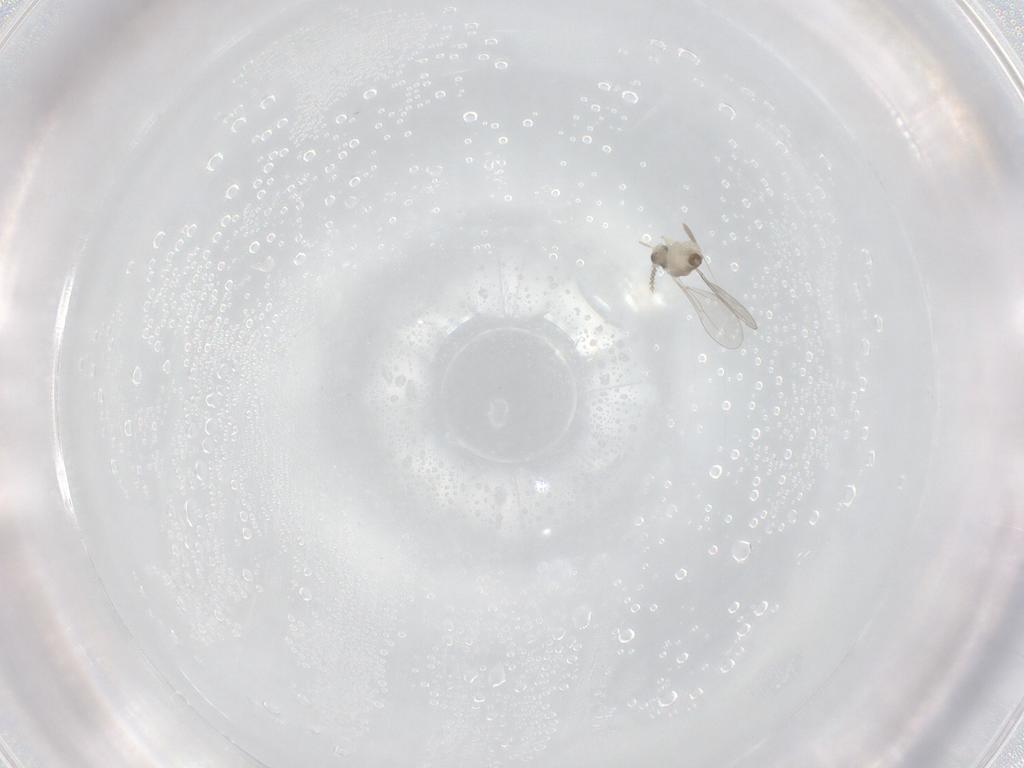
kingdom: Animalia
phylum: Arthropoda
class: Insecta
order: Diptera
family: Cecidomyiidae
